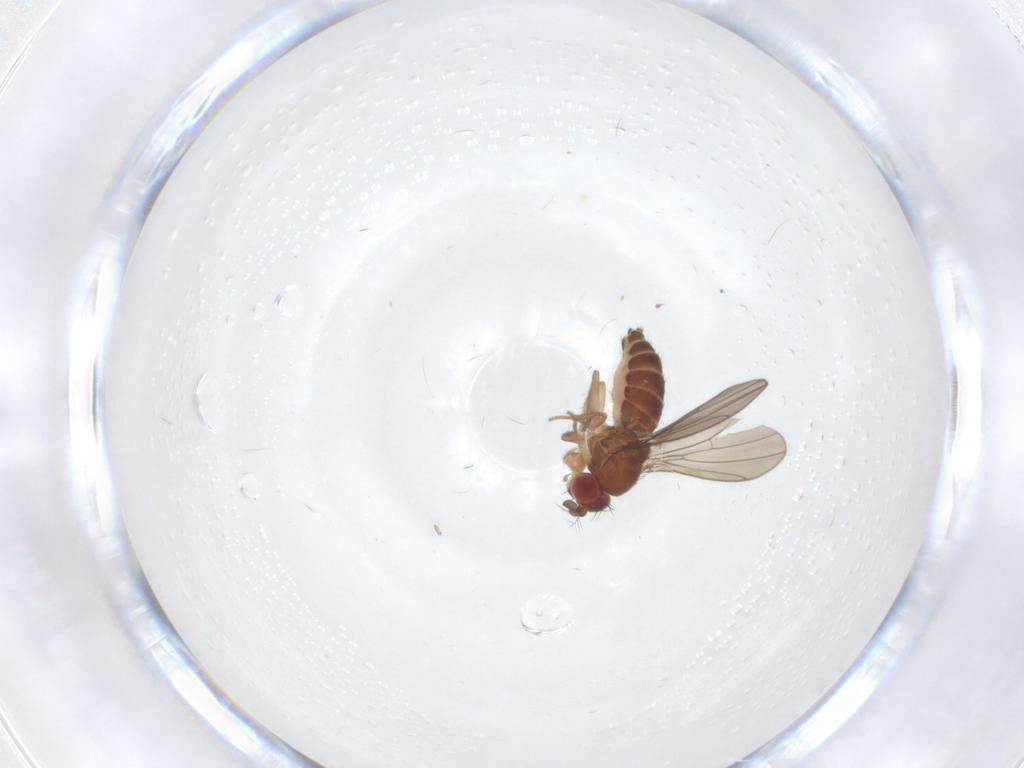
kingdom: Animalia
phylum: Arthropoda
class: Insecta
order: Diptera
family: Drosophilidae
